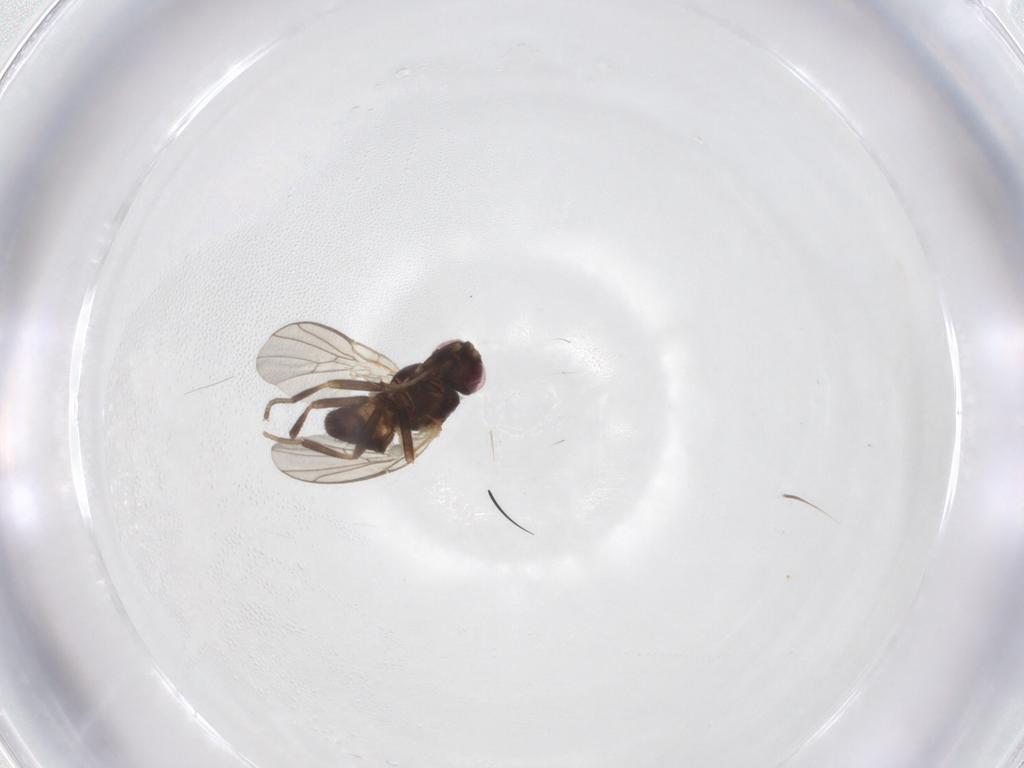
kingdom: Animalia
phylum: Arthropoda
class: Insecta
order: Diptera
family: Agromyzidae
